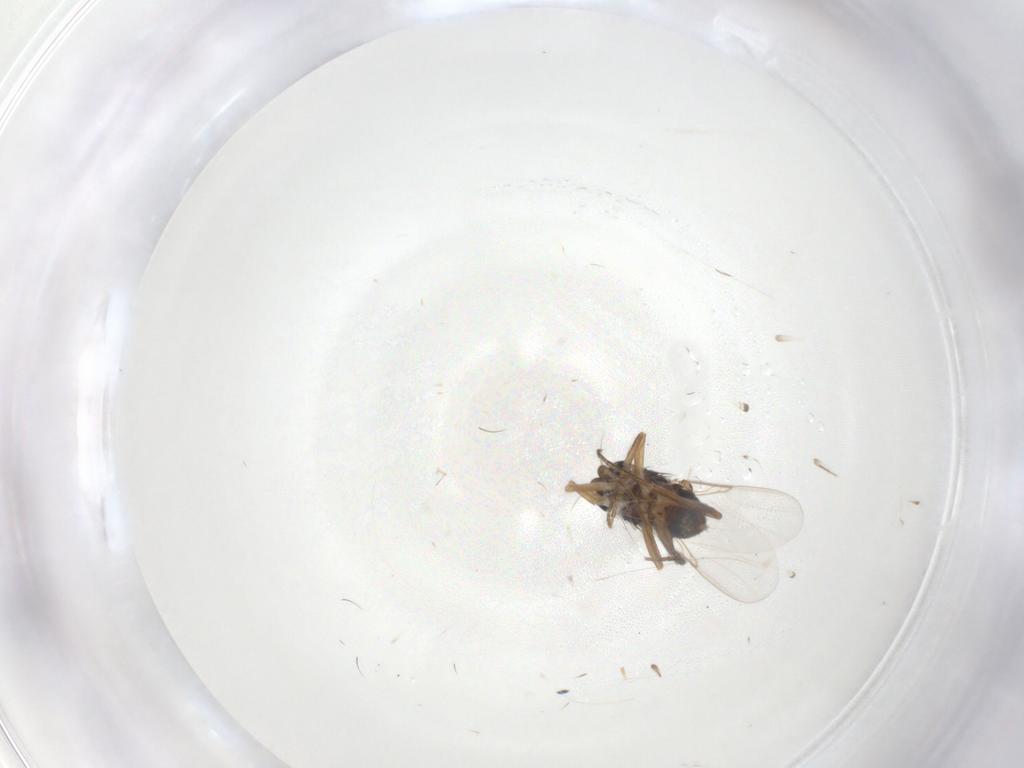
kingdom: Animalia
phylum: Arthropoda
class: Insecta
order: Diptera
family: Phoridae
